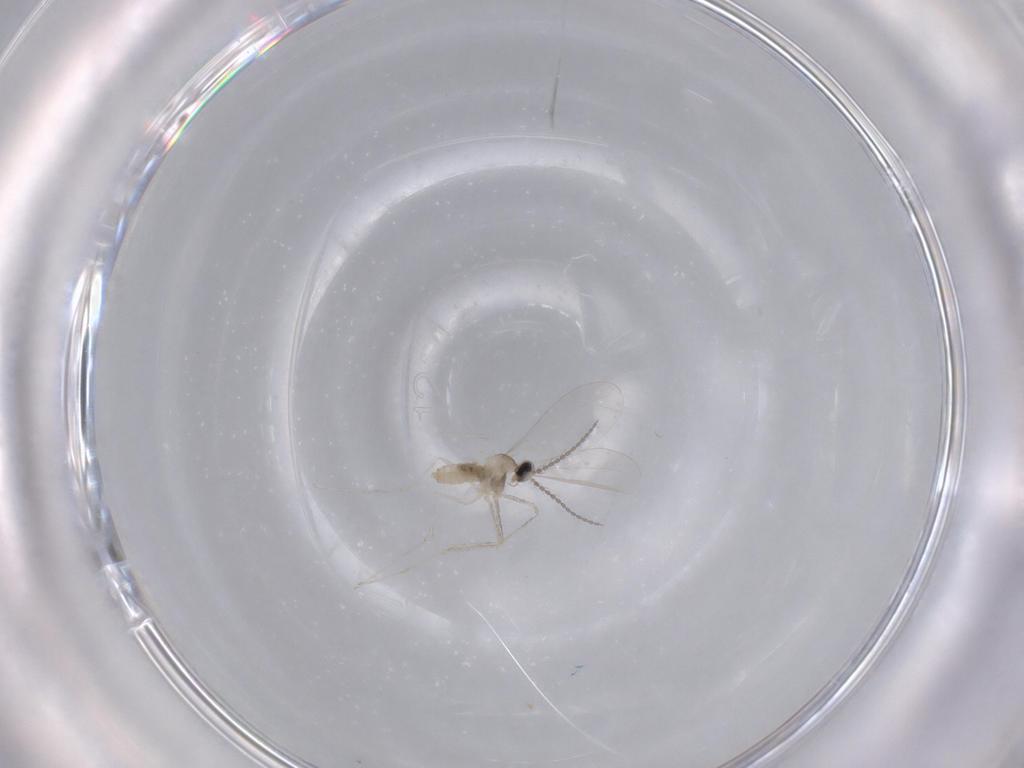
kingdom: Animalia
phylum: Arthropoda
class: Insecta
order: Diptera
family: Cecidomyiidae
